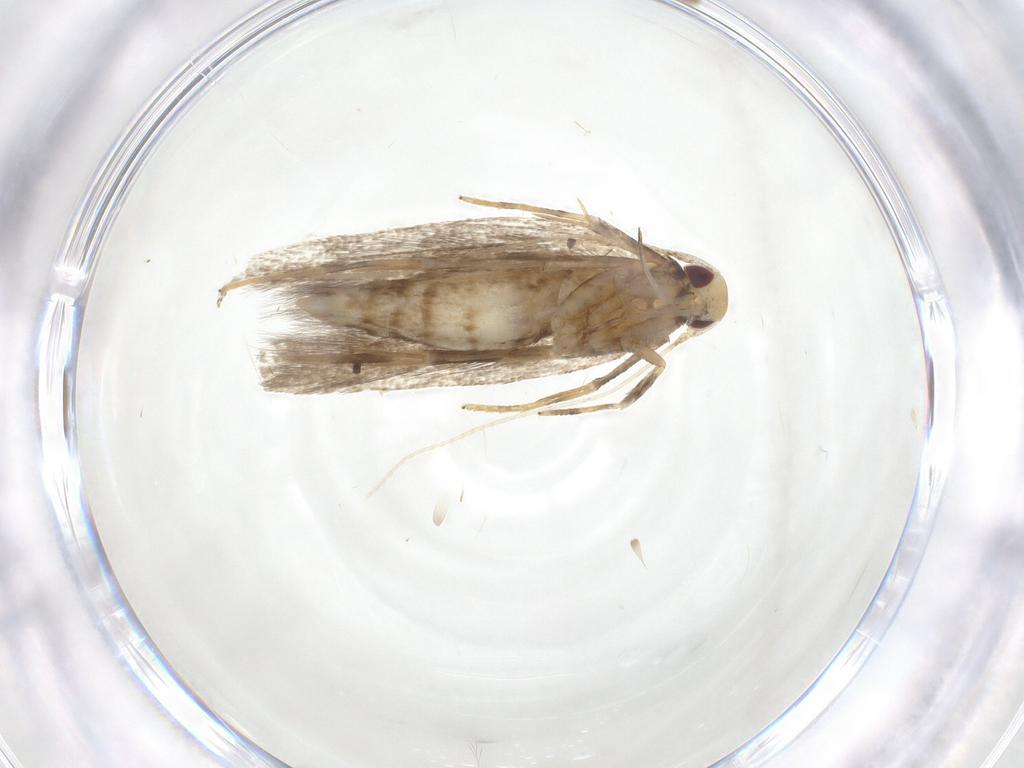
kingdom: Animalia
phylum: Arthropoda
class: Insecta
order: Lepidoptera
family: Cosmopterigidae
